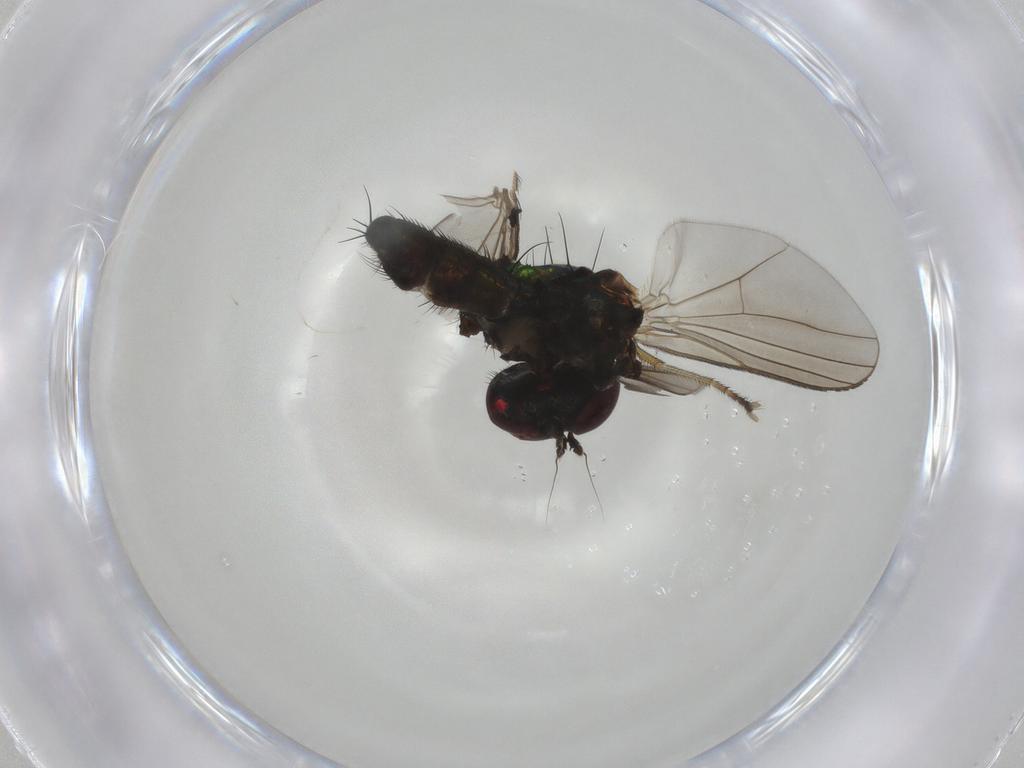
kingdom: Animalia
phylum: Arthropoda
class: Insecta
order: Diptera
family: Dolichopodidae
